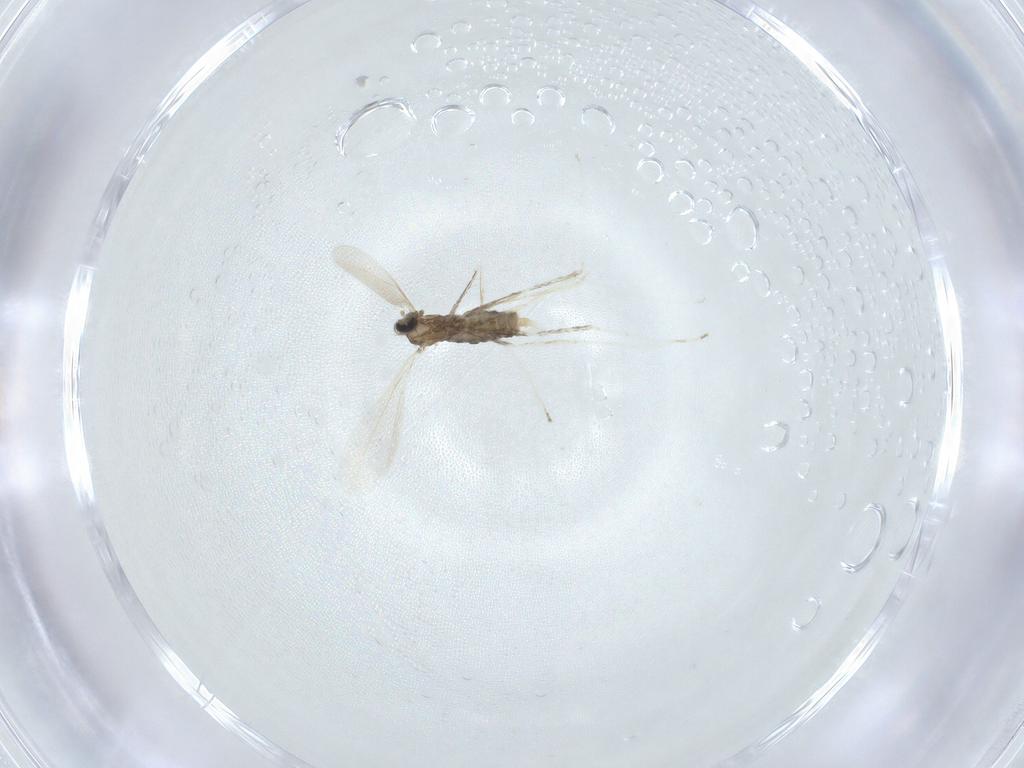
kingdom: Animalia
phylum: Arthropoda
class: Insecta
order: Diptera
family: Cecidomyiidae
